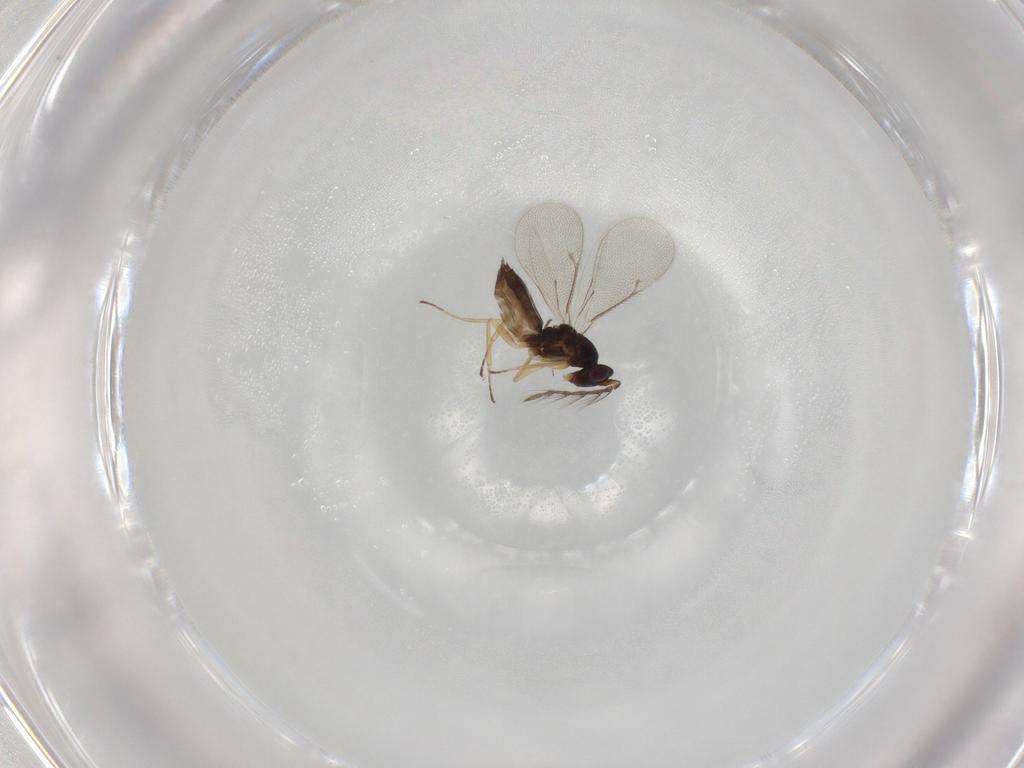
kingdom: Animalia
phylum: Arthropoda
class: Insecta
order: Hymenoptera
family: Eulophidae
